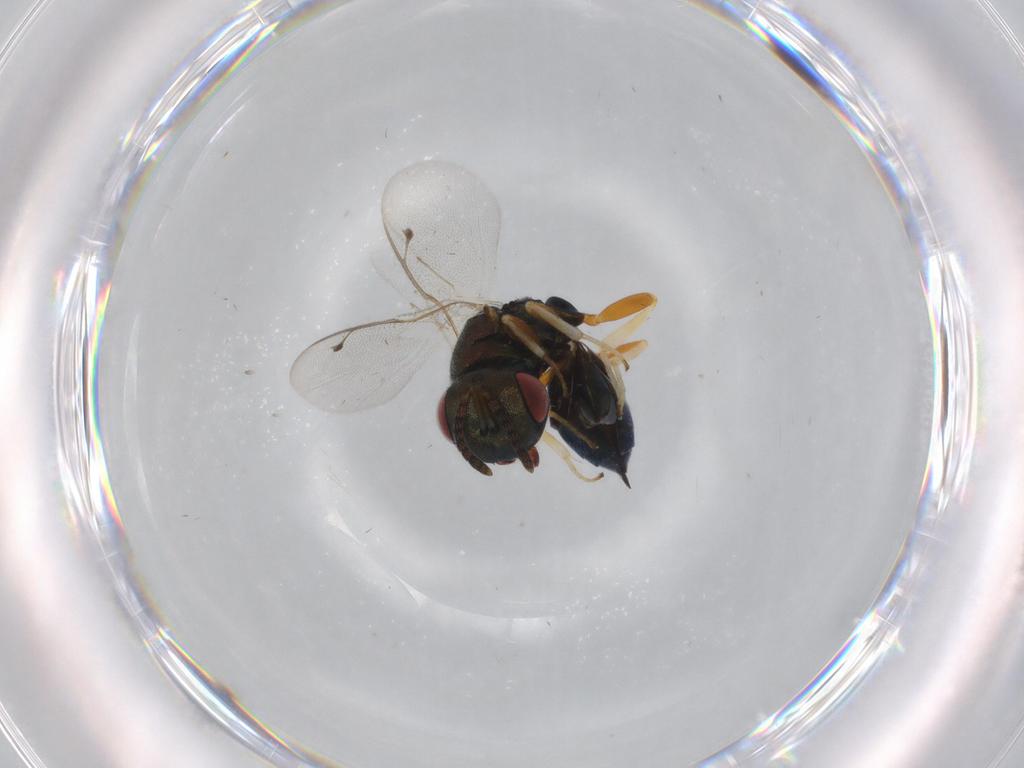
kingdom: Animalia
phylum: Arthropoda
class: Insecta
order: Hymenoptera
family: Pteromalidae
